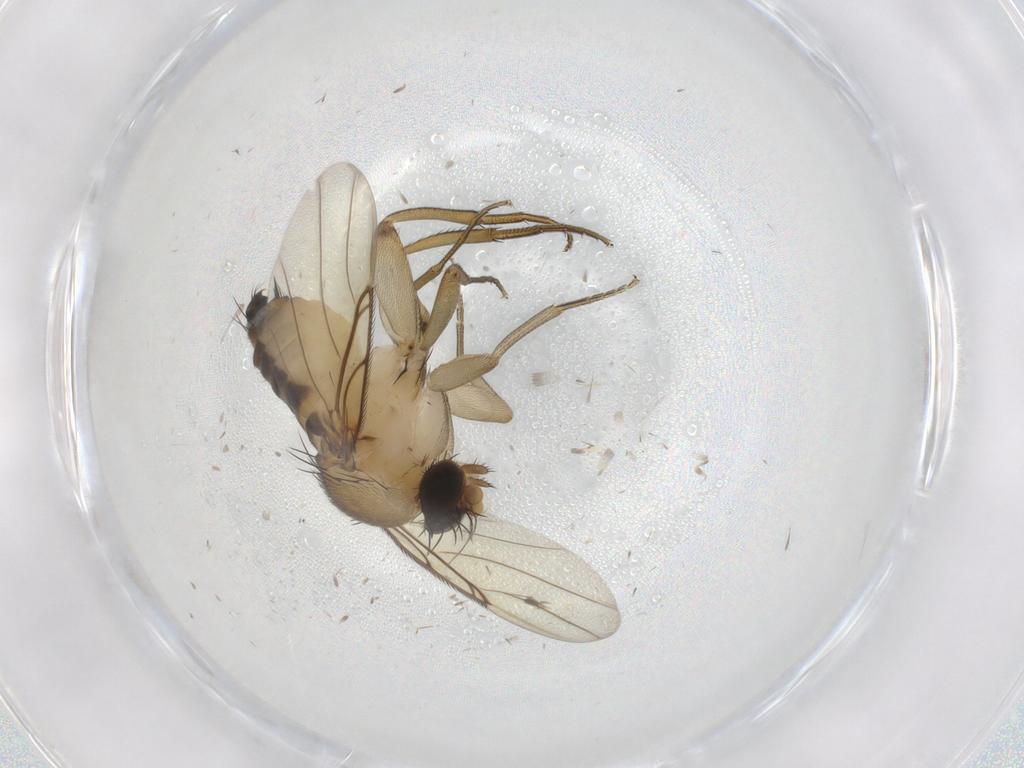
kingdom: Animalia
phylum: Arthropoda
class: Insecta
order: Diptera
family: Phoridae
